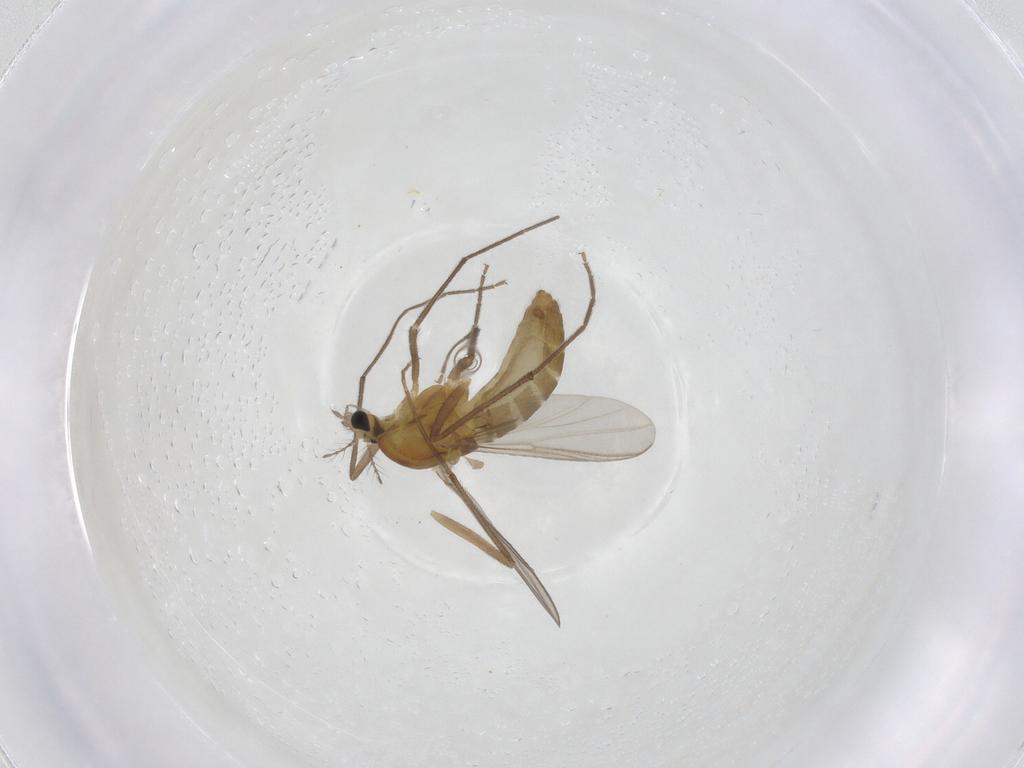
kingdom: Animalia
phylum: Arthropoda
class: Insecta
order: Diptera
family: Chironomidae
